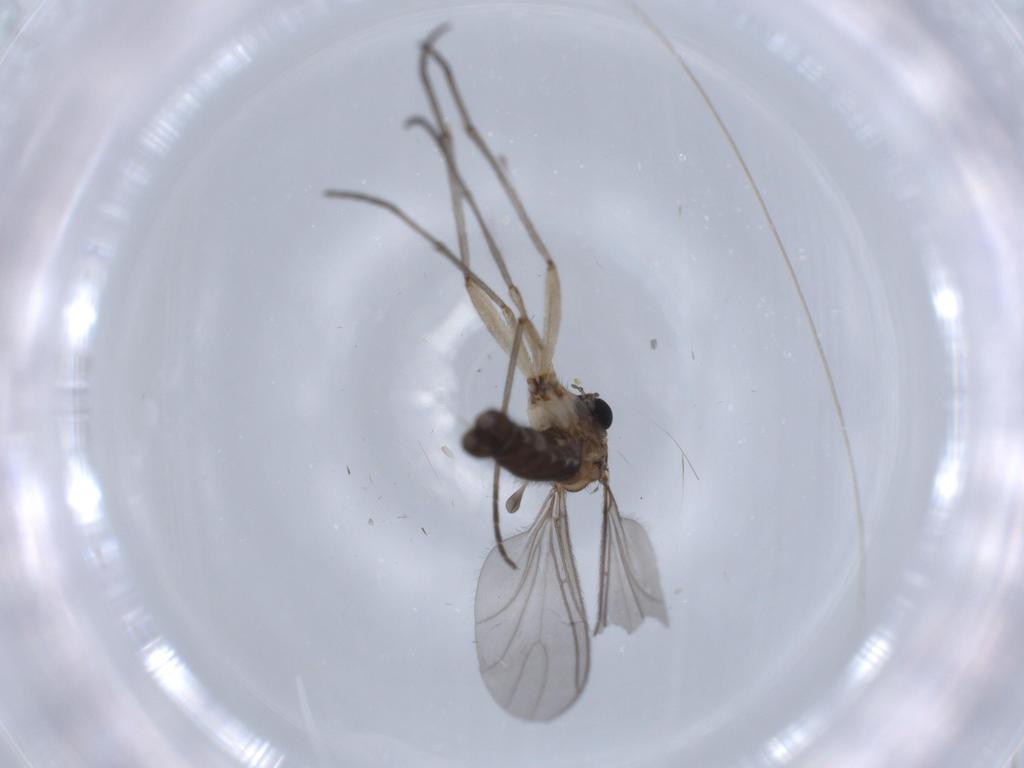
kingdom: Animalia
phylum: Arthropoda
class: Insecta
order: Diptera
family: Sciaridae
